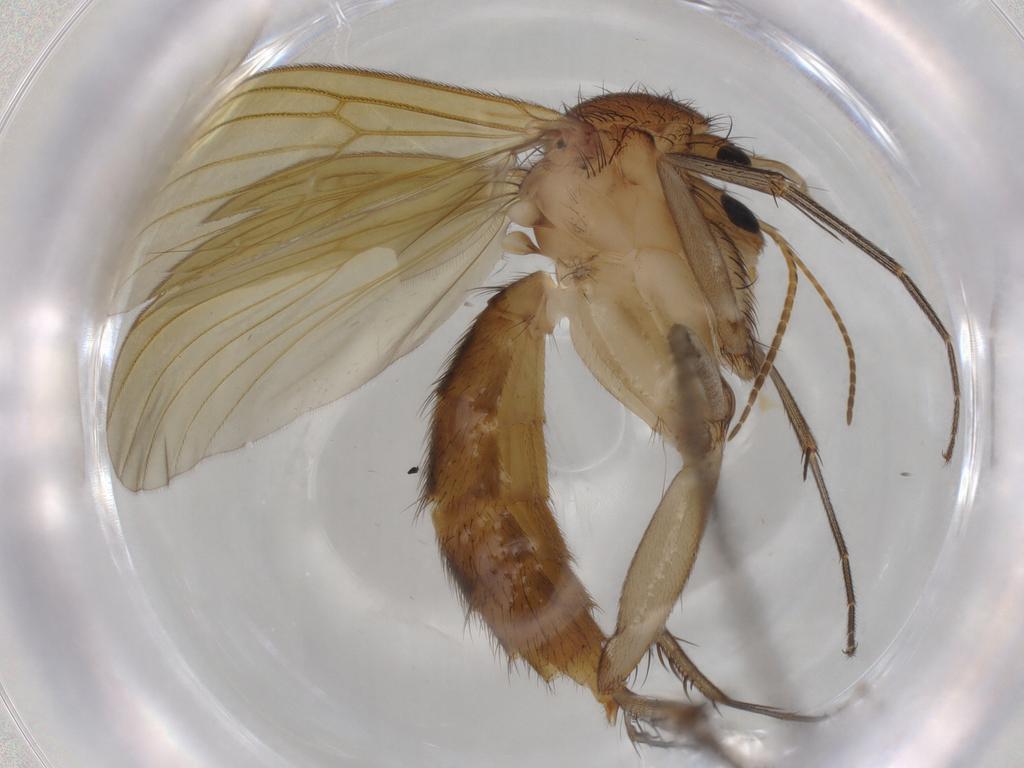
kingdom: Animalia
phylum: Arthropoda
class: Insecta
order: Diptera
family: Mycetophilidae
